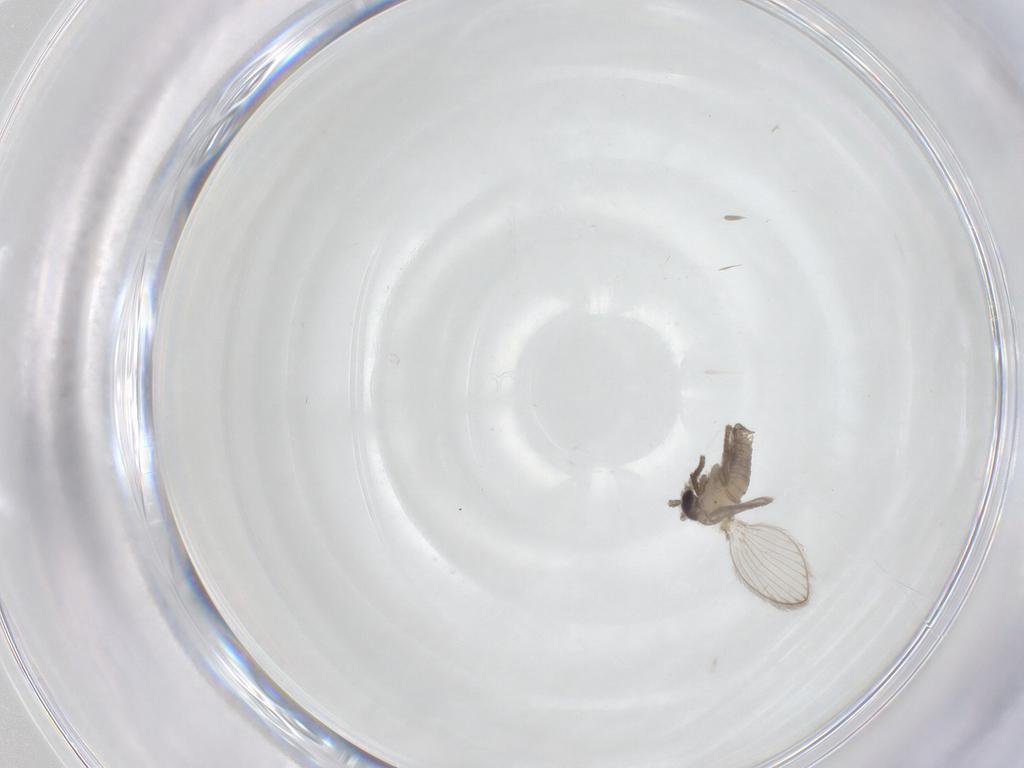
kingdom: Animalia
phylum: Arthropoda
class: Insecta
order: Diptera
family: Psychodidae
